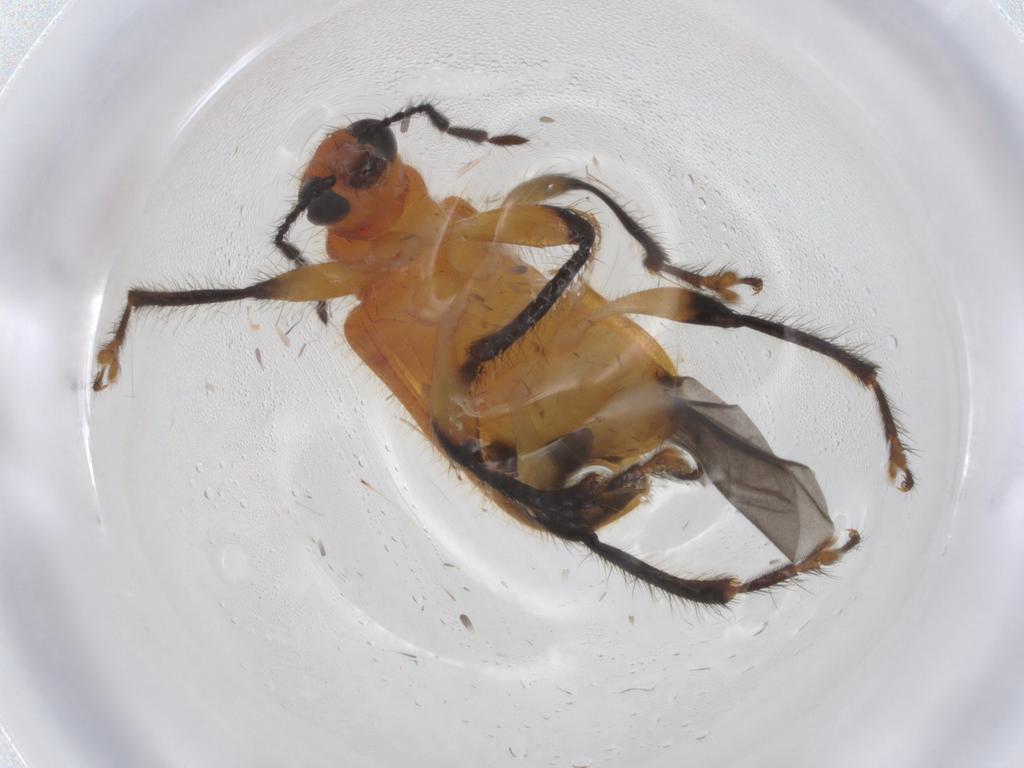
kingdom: Animalia
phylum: Arthropoda
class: Insecta
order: Coleoptera
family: Attelabidae
